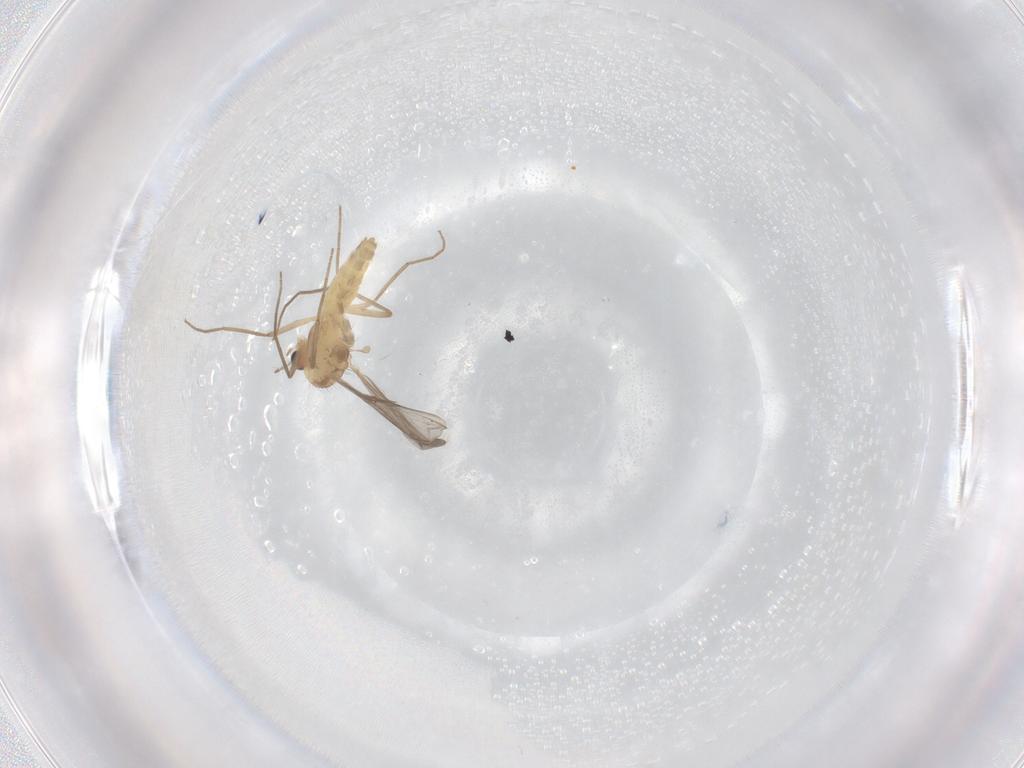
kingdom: Animalia
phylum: Arthropoda
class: Insecta
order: Diptera
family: Chironomidae
